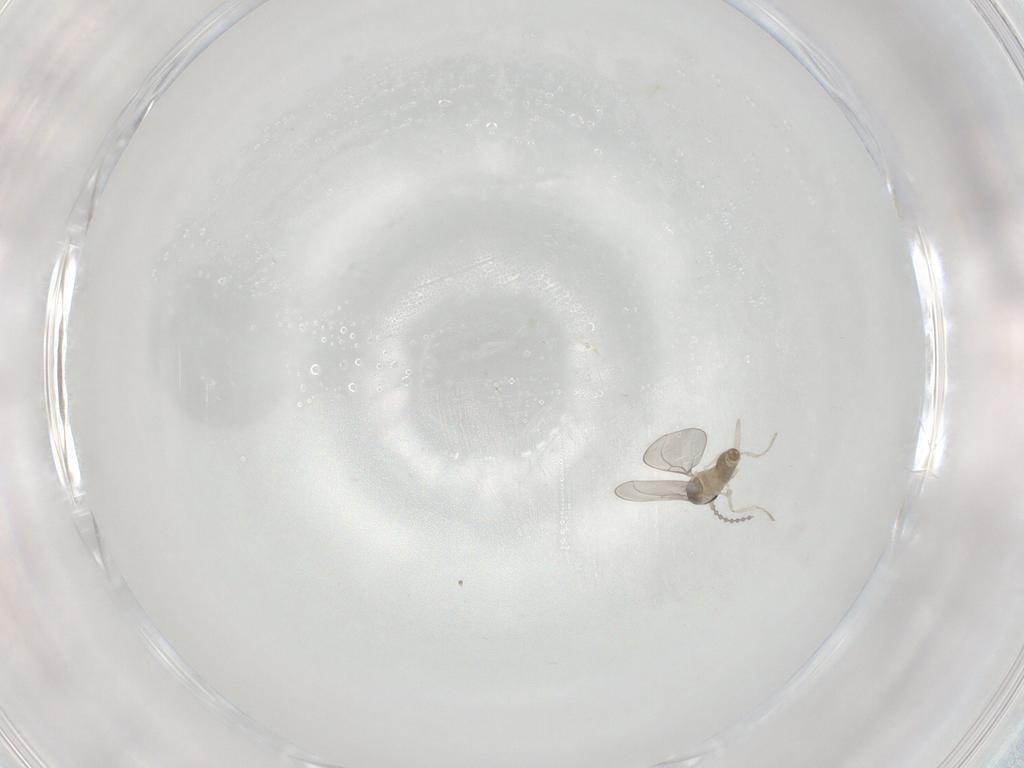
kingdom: Animalia
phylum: Arthropoda
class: Insecta
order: Diptera
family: Cecidomyiidae
